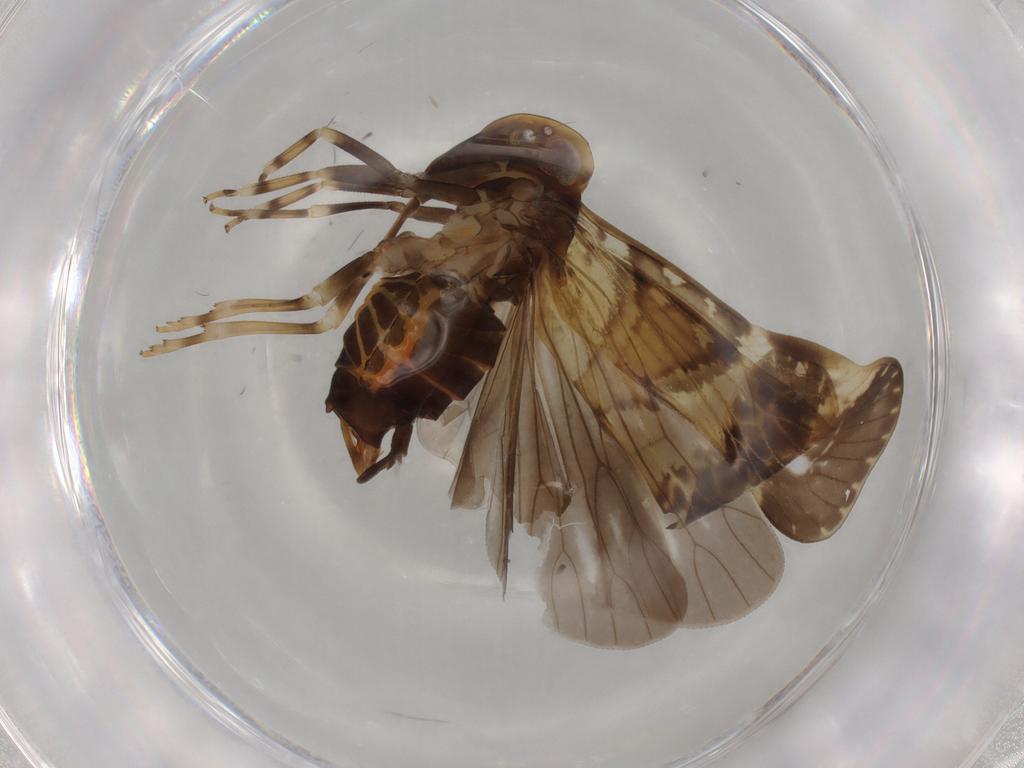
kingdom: Animalia
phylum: Arthropoda
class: Insecta
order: Hemiptera
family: Cixiidae
